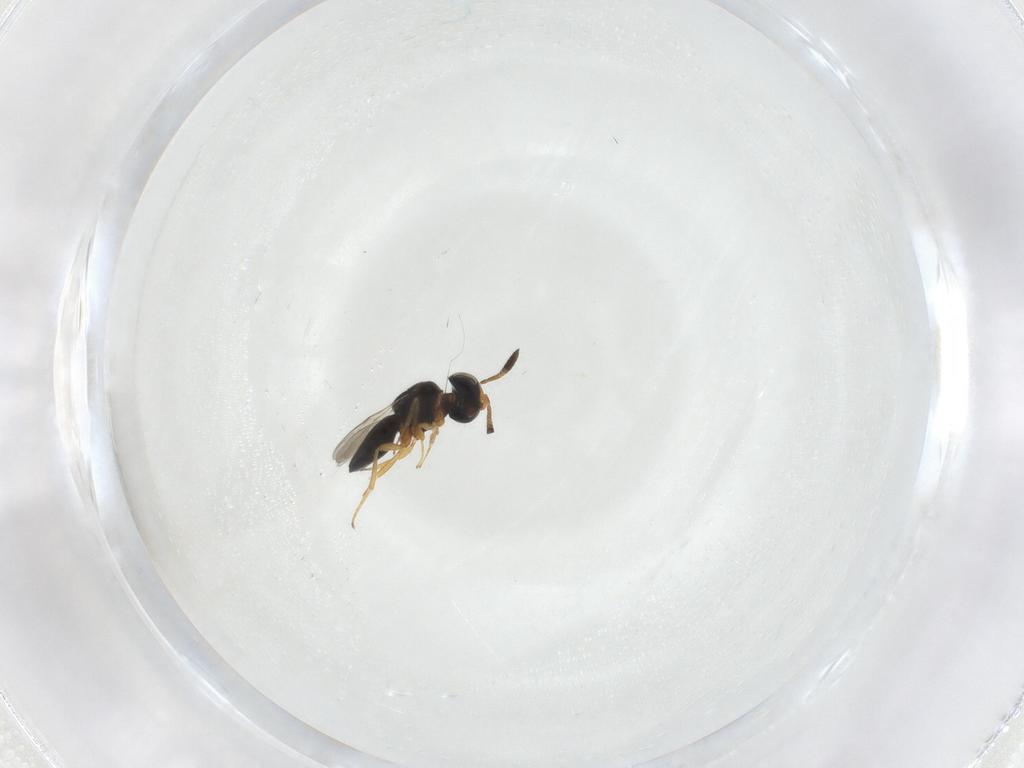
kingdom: Animalia
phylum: Arthropoda
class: Insecta
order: Hymenoptera
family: Scelionidae
